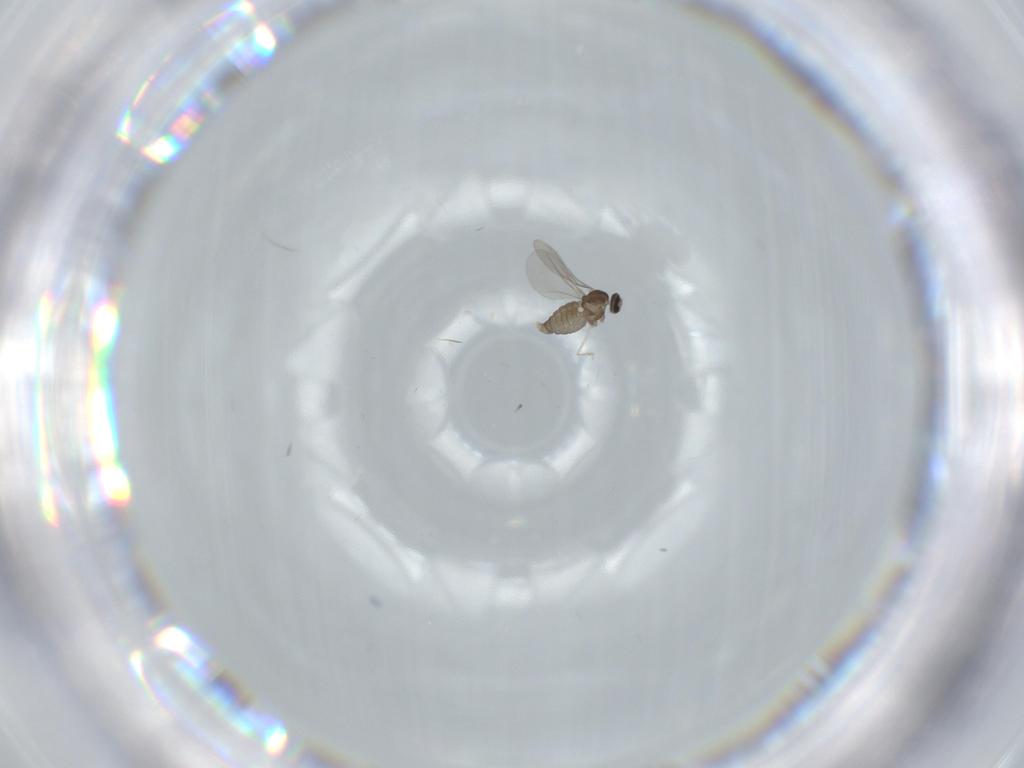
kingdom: Animalia
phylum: Arthropoda
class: Insecta
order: Diptera
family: Cecidomyiidae
